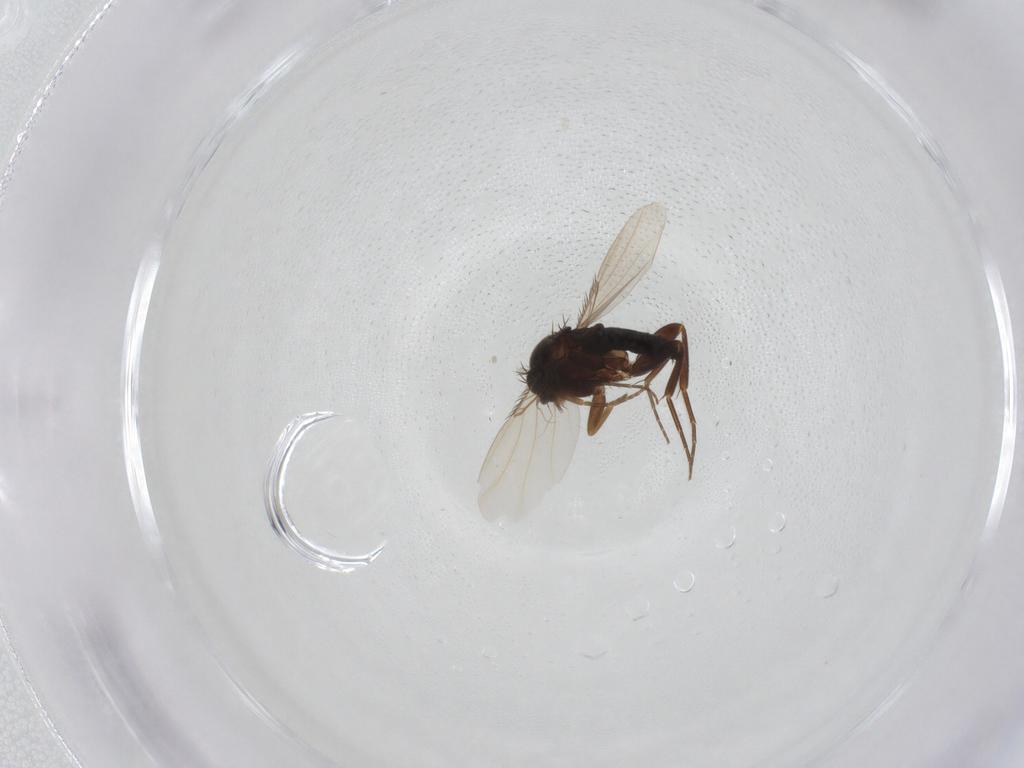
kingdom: Animalia
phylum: Arthropoda
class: Insecta
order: Diptera
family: Phoridae
